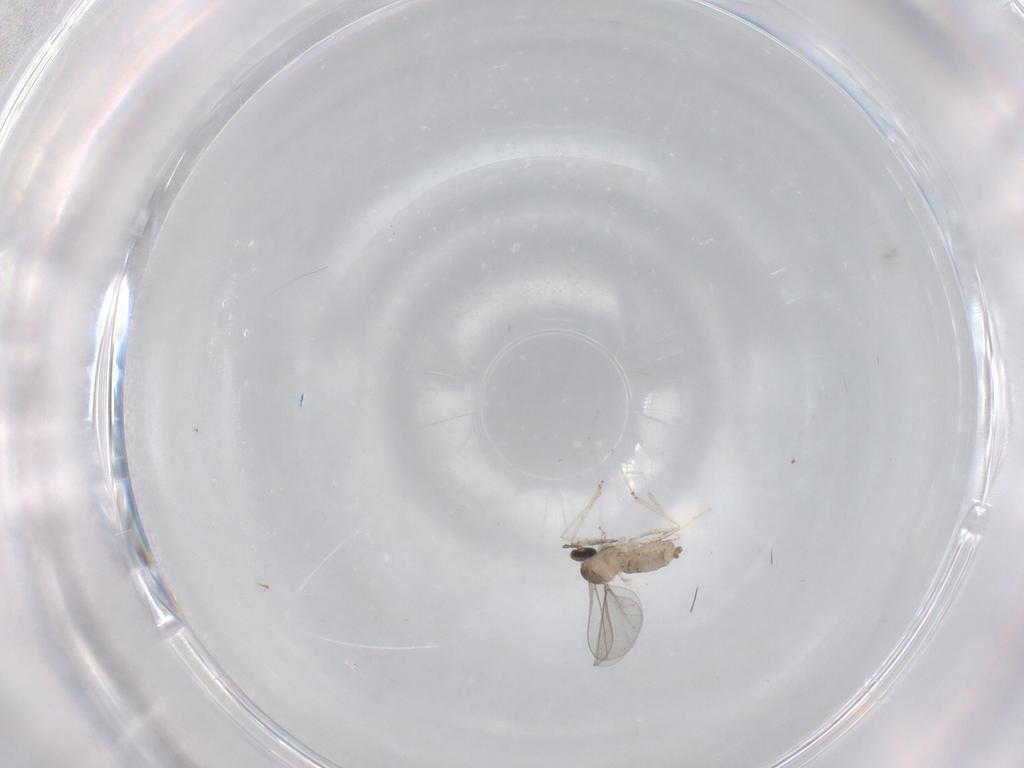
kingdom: Animalia
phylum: Arthropoda
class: Insecta
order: Diptera
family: Cecidomyiidae
